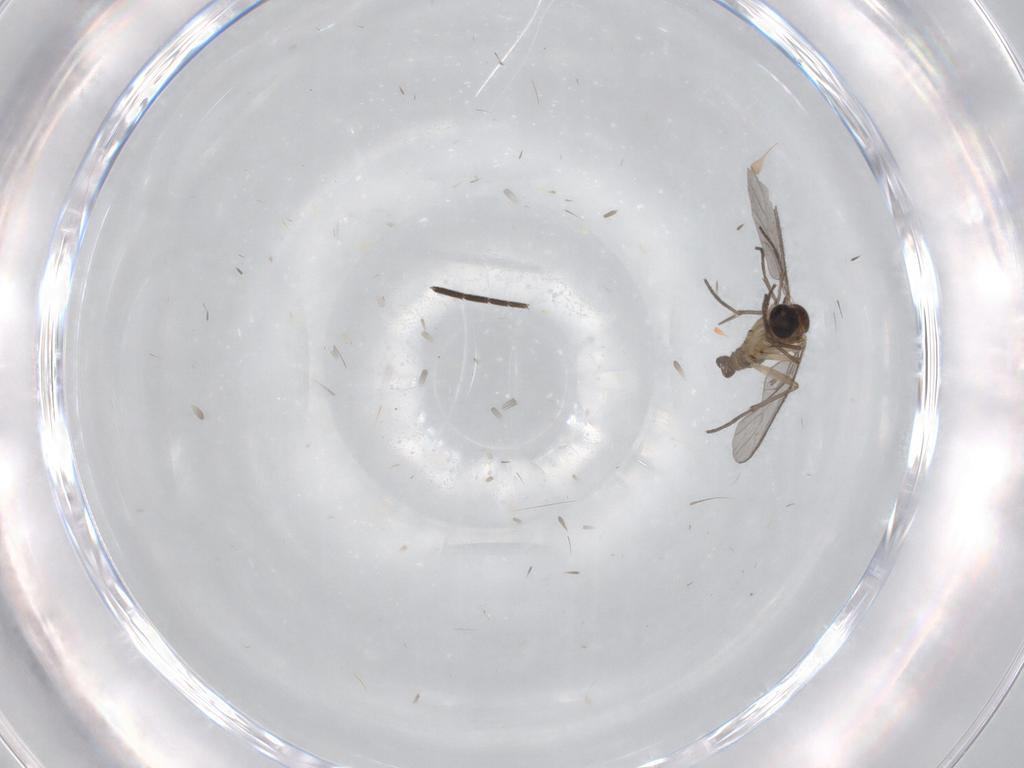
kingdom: Animalia
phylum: Arthropoda
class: Insecta
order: Diptera
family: Sciaridae
